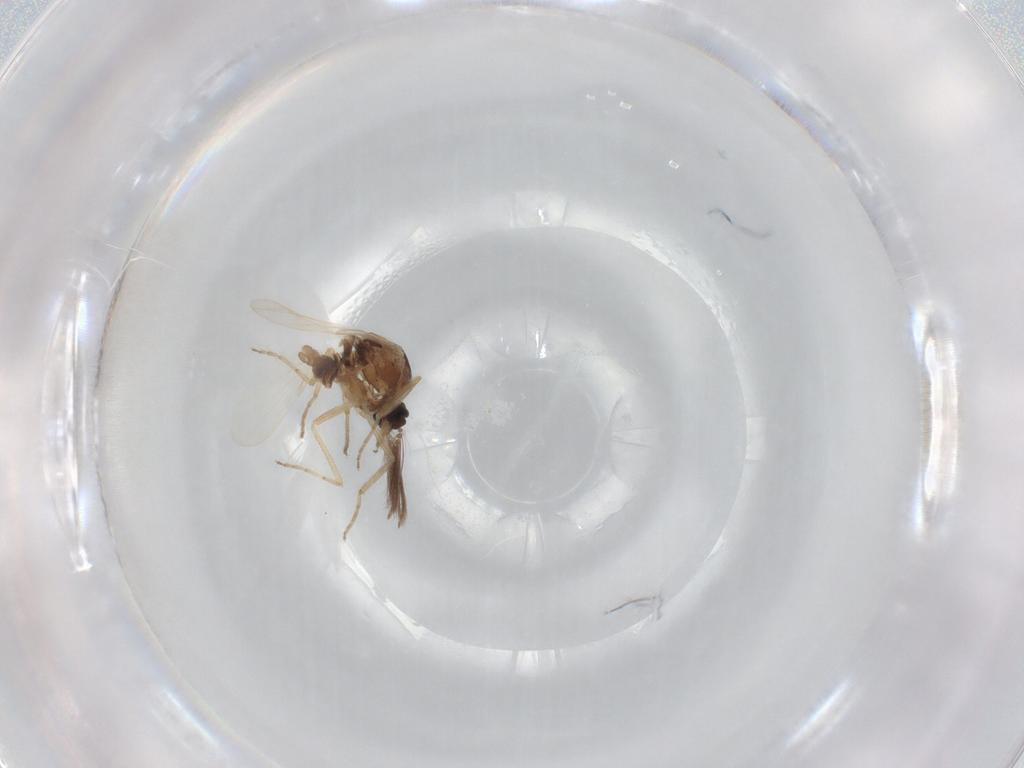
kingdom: Animalia
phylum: Arthropoda
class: Insecta
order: Diptera
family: Ceratopogonidae
